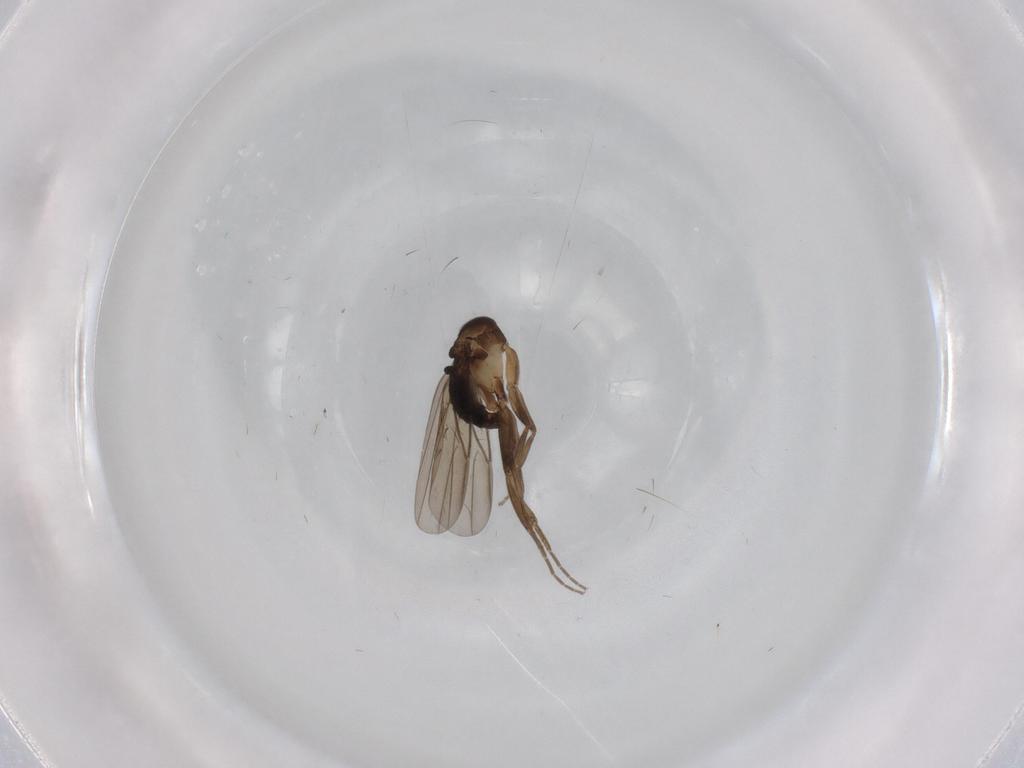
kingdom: Animalia
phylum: Arthropoda
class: Insecta
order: Diptera
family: Phoridae
